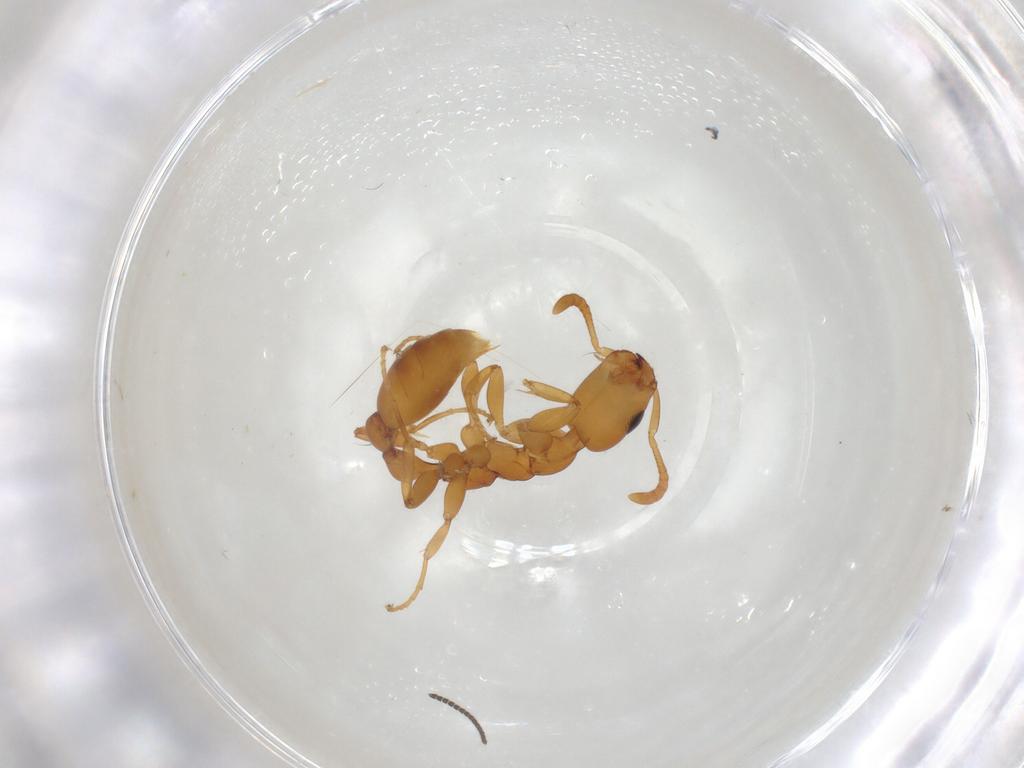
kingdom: Animalia
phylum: Arthropoda
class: Insecta
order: Hymenoptera
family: Formicidae
